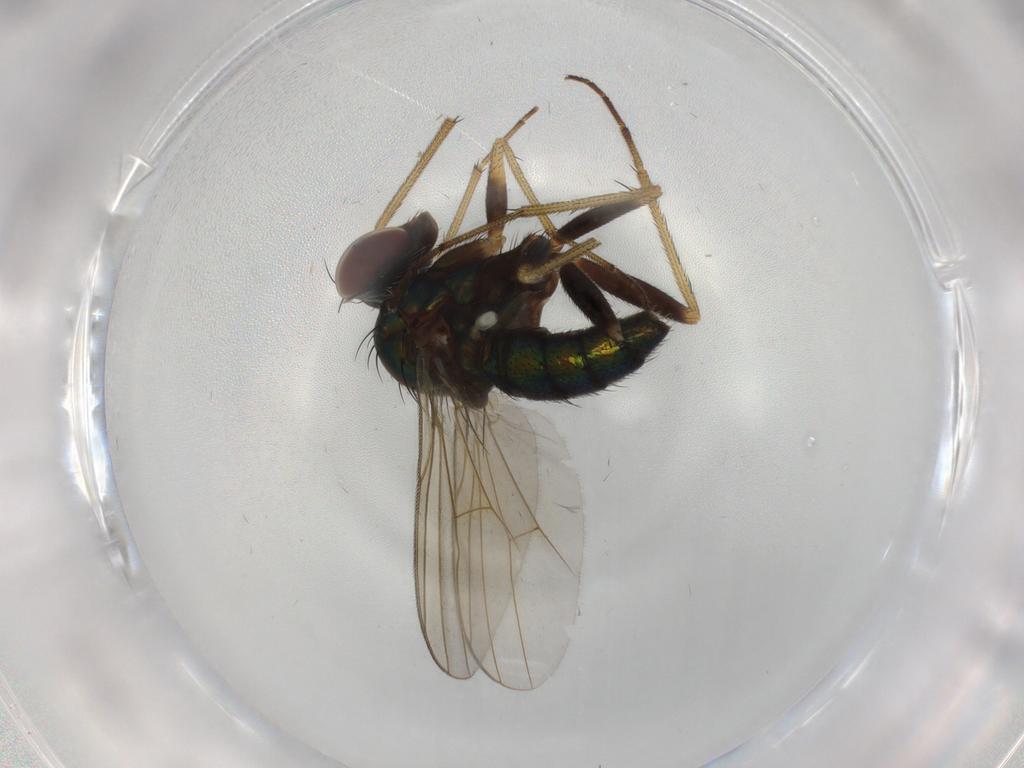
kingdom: Animalia
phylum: Arthropoda
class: Insecta
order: Diptera
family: Dolichopodidae
